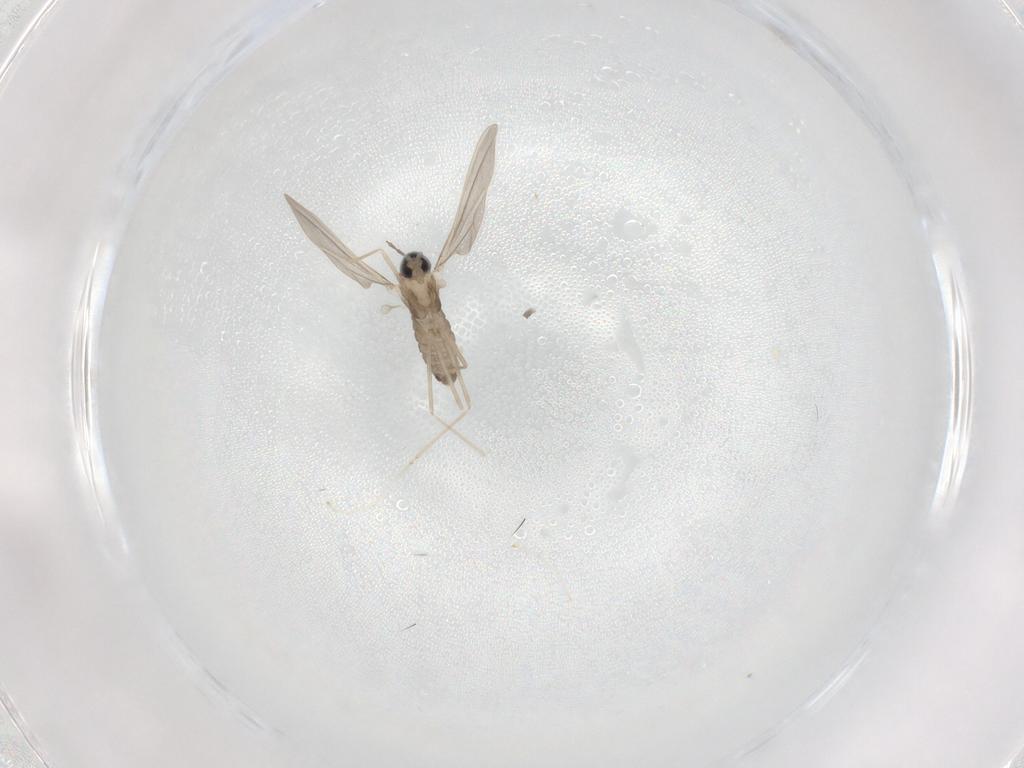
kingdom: Animalia
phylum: Arthropoda
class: Insecta
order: Diptera
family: Cecidomyiidae
